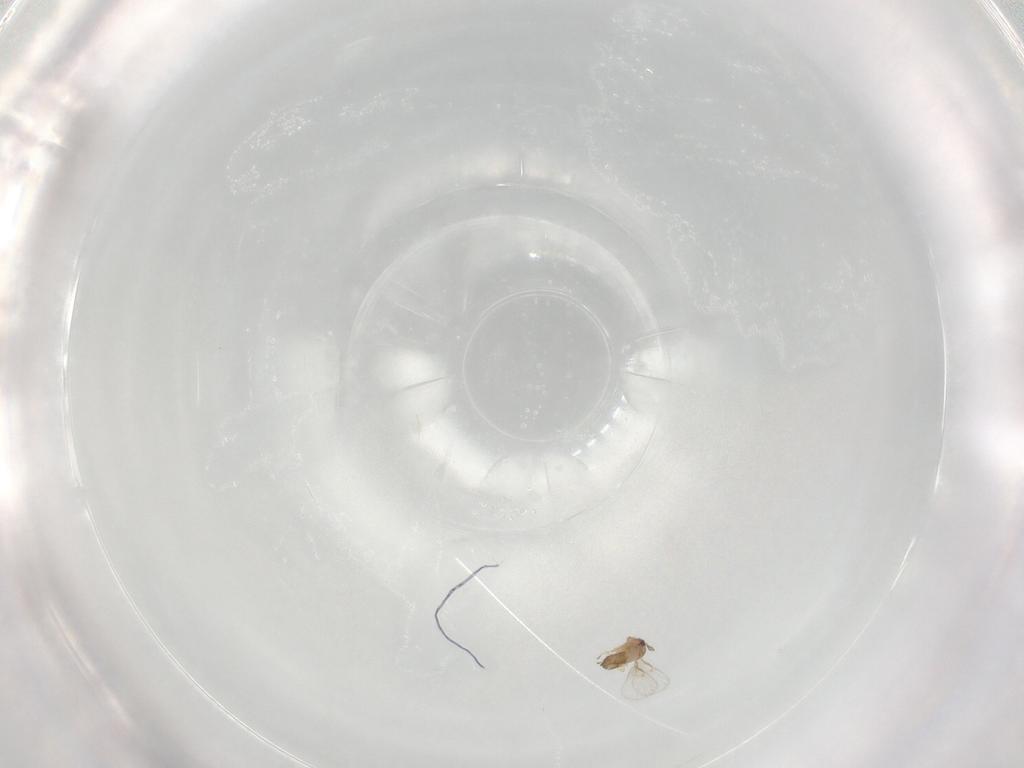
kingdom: Animalia
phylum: Arthropoda
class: Insecta
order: Hymenoptera
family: Scelionidae
